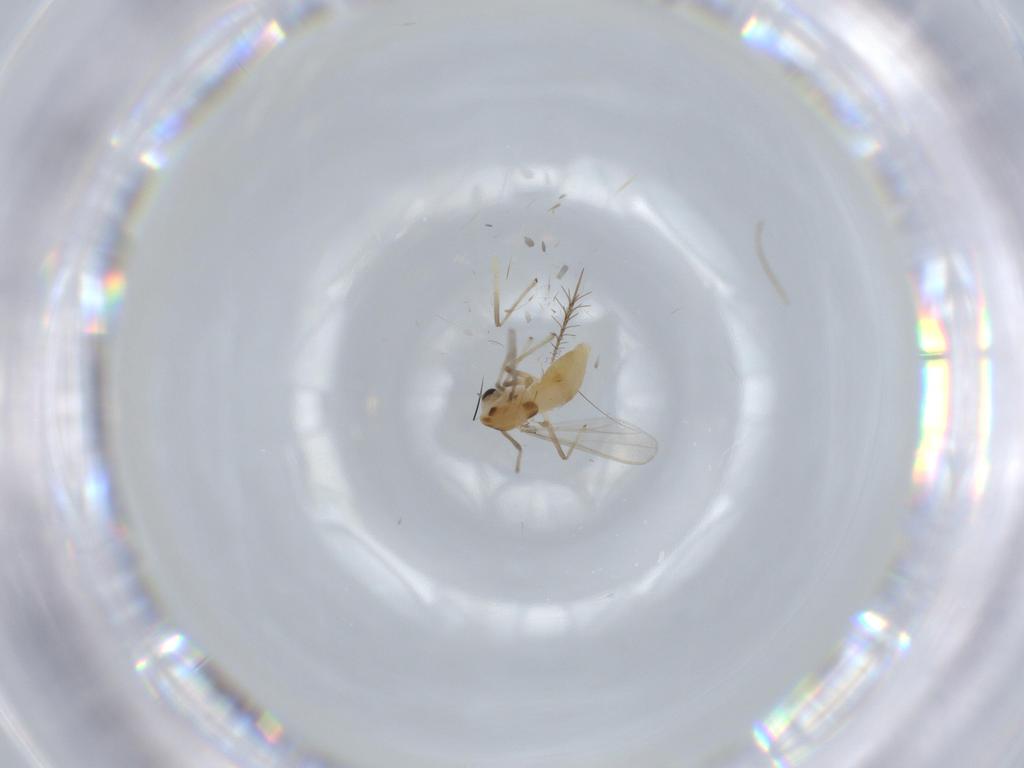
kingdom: Animalia
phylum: Arthropoda
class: Insecta
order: Diptera
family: Chironomidae
